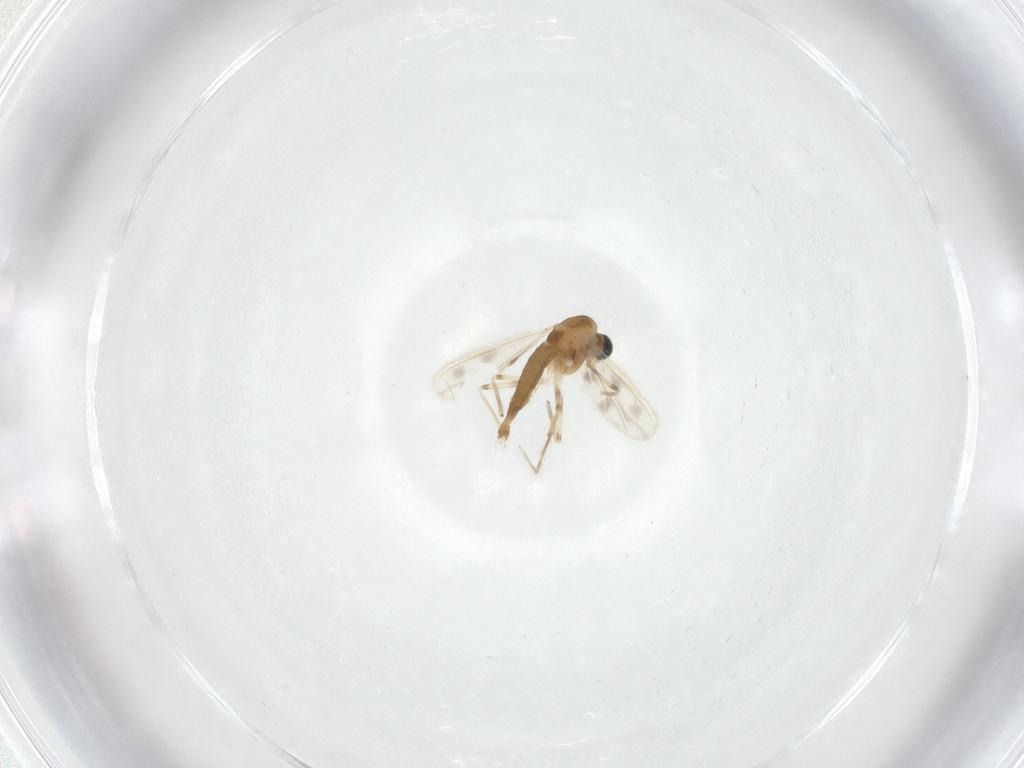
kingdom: Animalia
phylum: Arthropoda
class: Insecta
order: Diptera
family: Chironomidae
